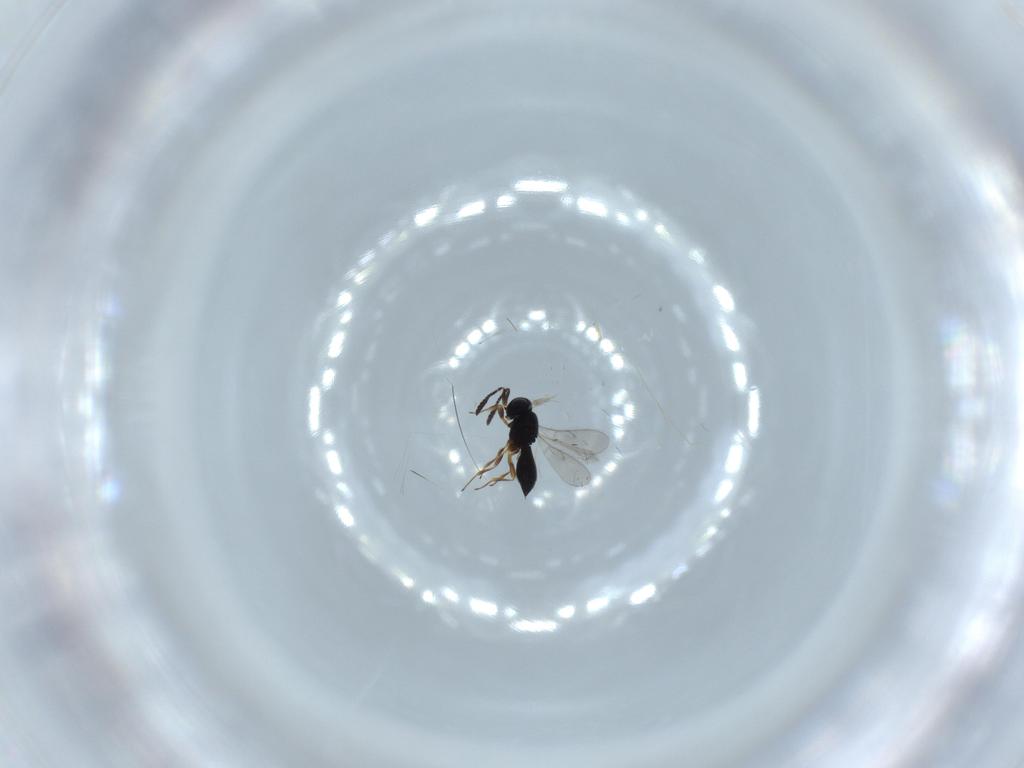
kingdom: Animalia
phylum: Arthropoda
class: Insecta
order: Hymenoptera
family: Scelionidae
